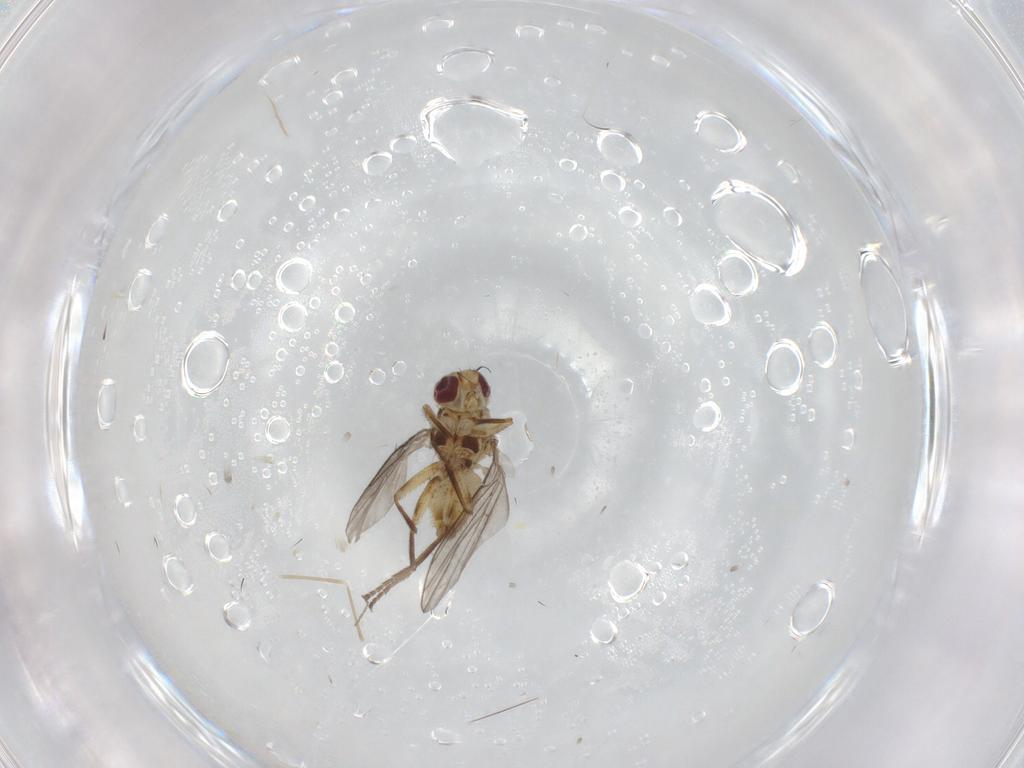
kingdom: Animalia
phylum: Arthropoda
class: Insecta
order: Diptera
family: Agromyzidae
